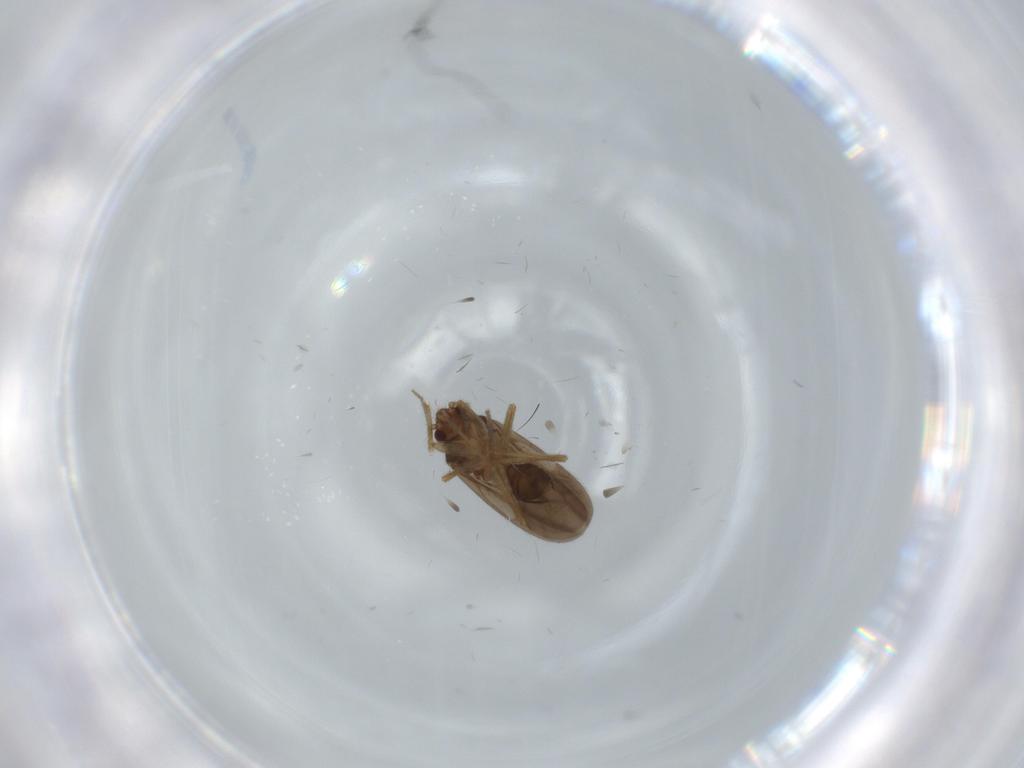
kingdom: Animalia
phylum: Arthropoda
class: Insecta
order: Hemiptera
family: Ceratocombidae
